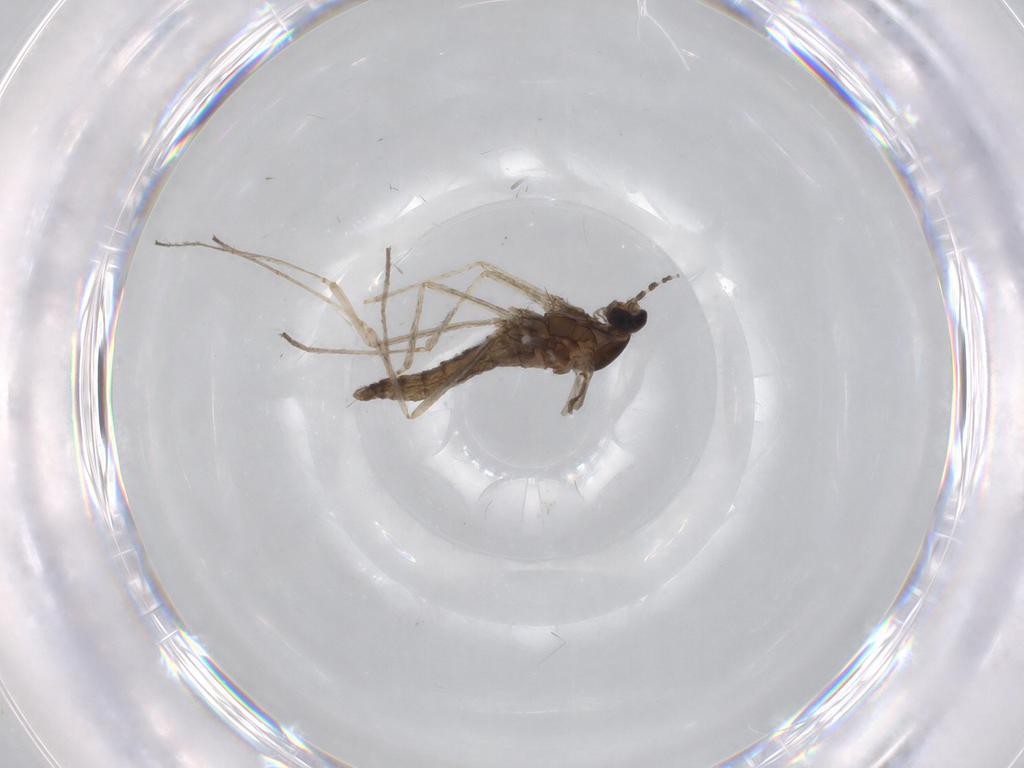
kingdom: Animalia
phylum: Arthropoda
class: Insecta
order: Diptera
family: Cecidomyiidae
